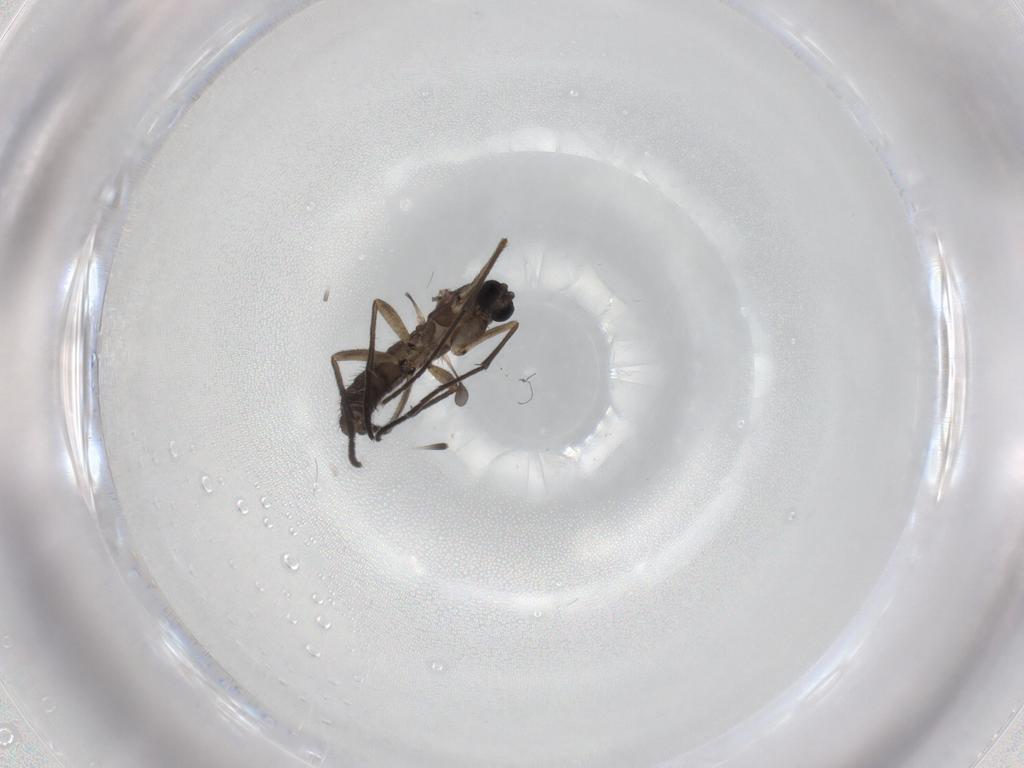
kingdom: Animalia
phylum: Arthropoda
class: Insecta
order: Diptera
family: Sciaridae
